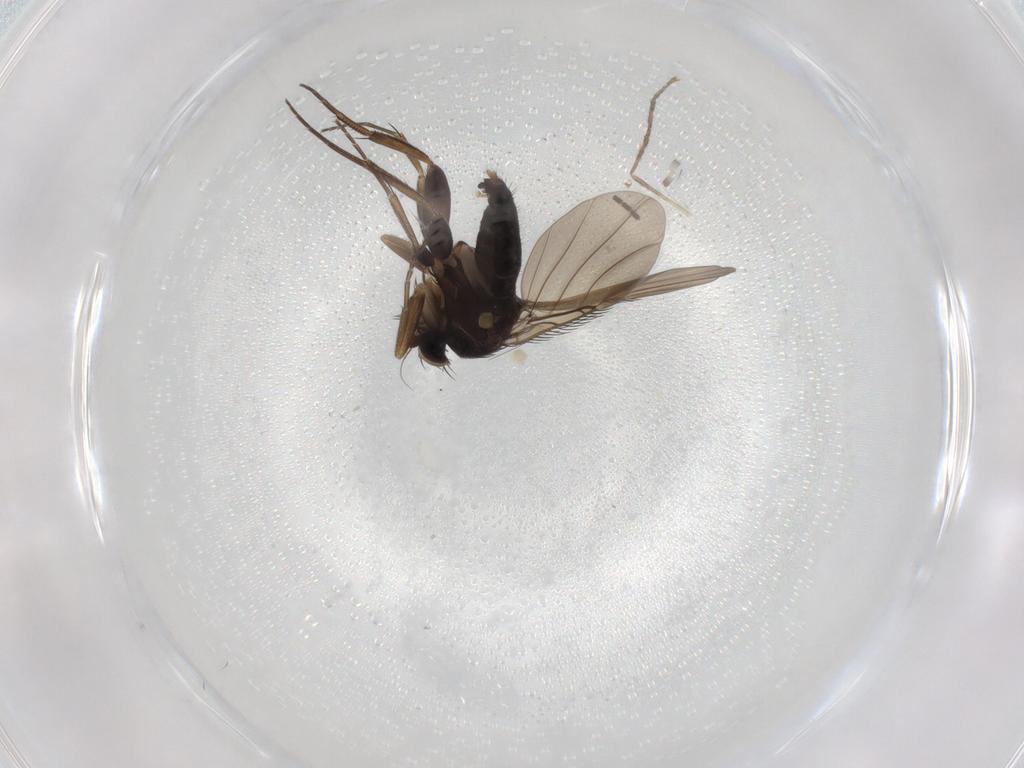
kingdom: Animalia
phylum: Arthropoda
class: Insecta
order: Diptera
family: Phoridae
